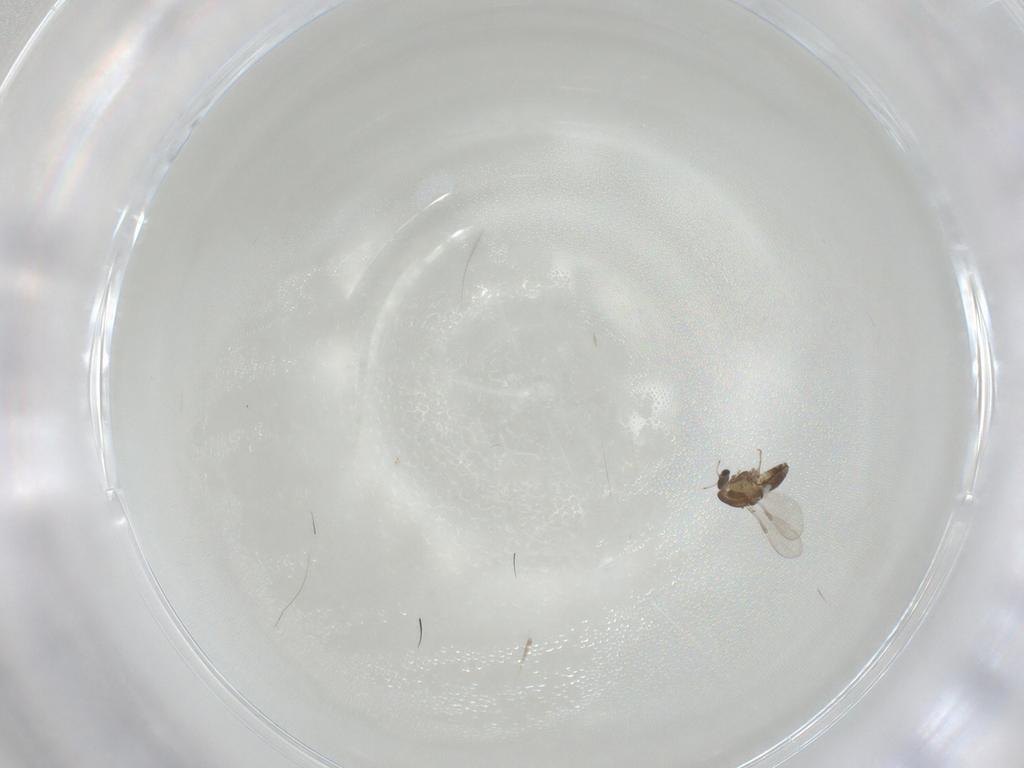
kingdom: Animalia
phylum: Arthropoda
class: Insecta
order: Diptera
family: Chironomidae
